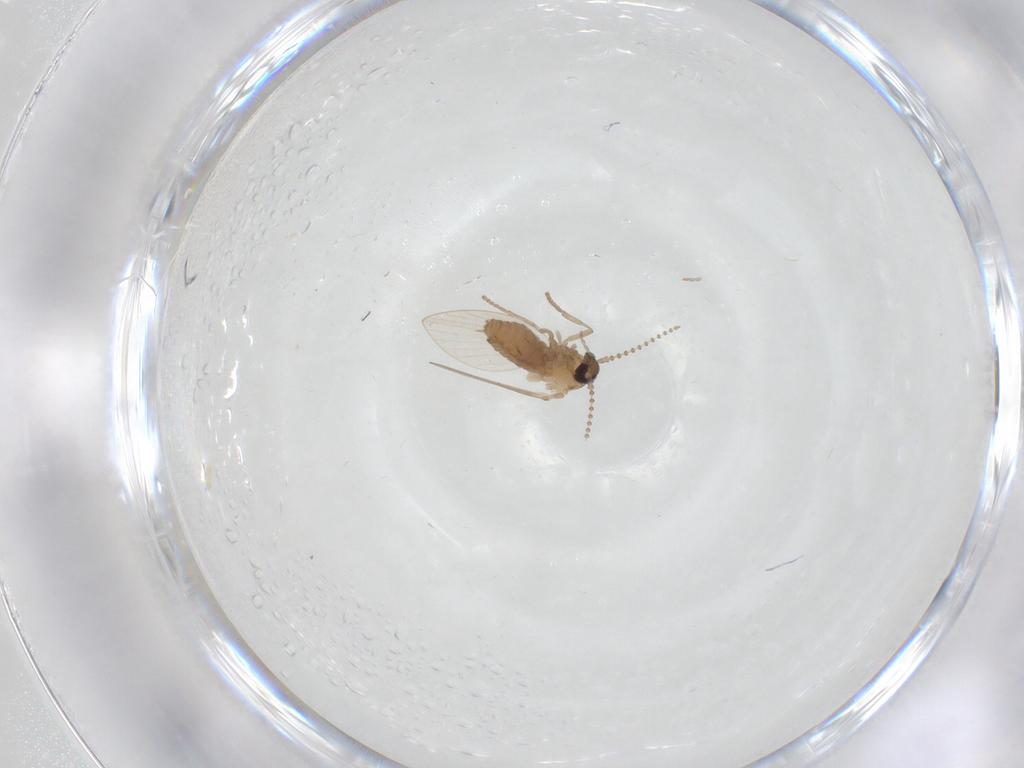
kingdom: Animalia
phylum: Arthropoda
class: Insecta
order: Diptera
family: Psychodidae
